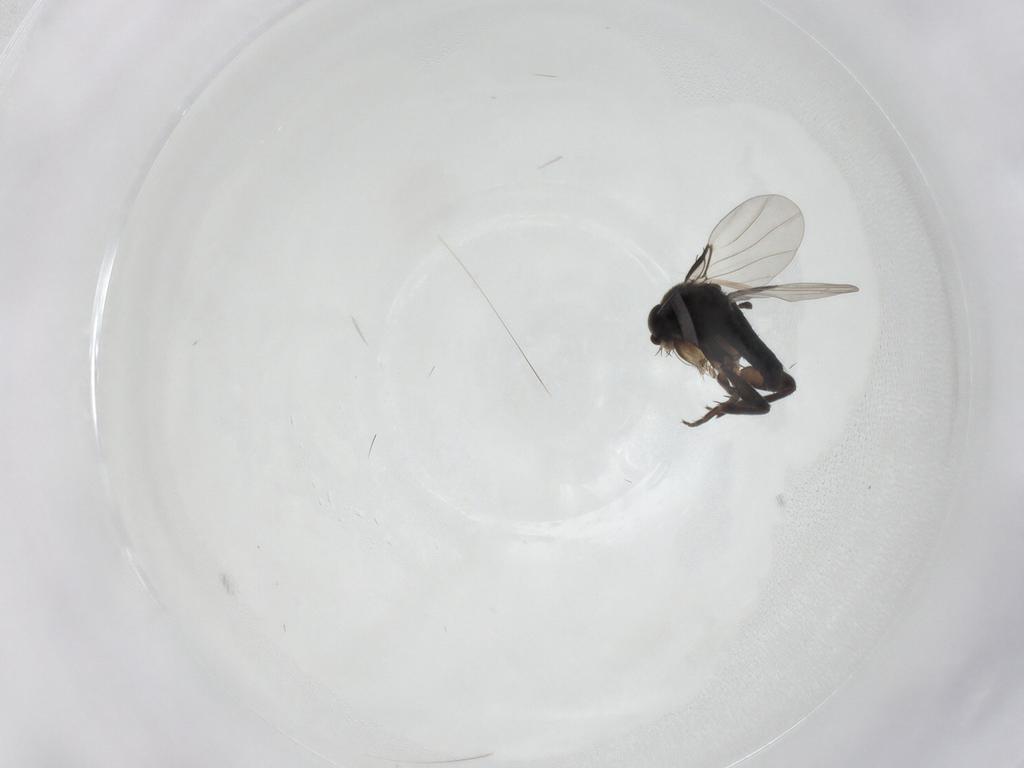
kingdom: Animalia
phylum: Arthropoda
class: Insecta
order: Diptera
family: Phoridae
